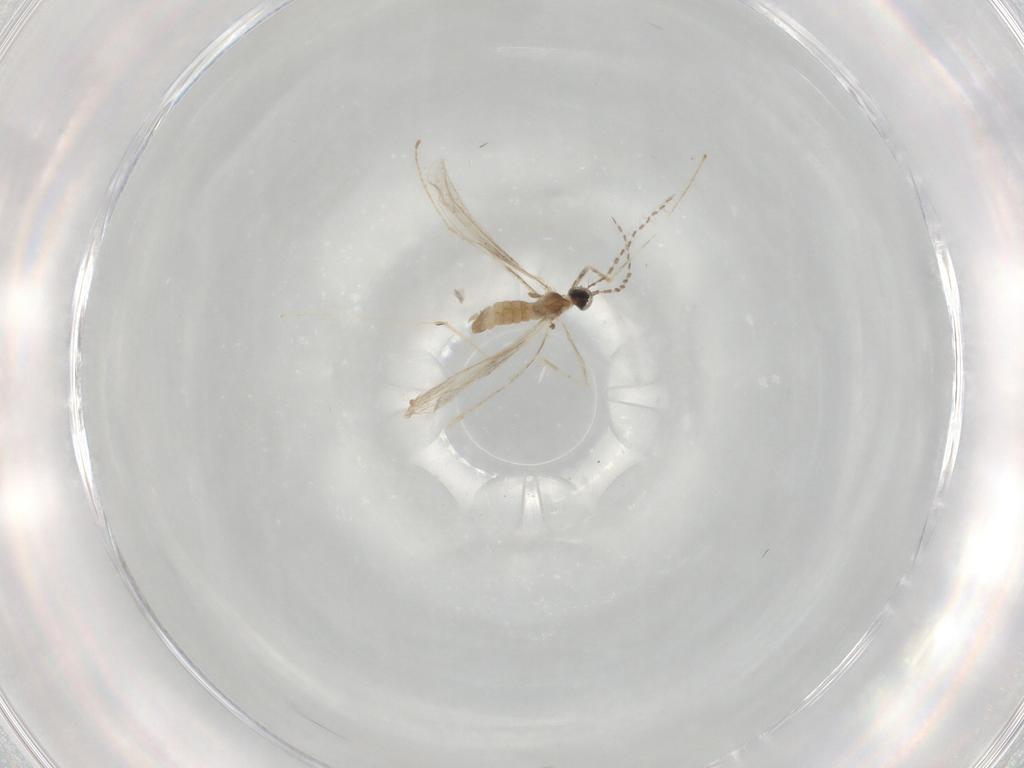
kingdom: Animalia
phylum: Arthropoda
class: Insecta
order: Diptera
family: Cecidomyiidae
